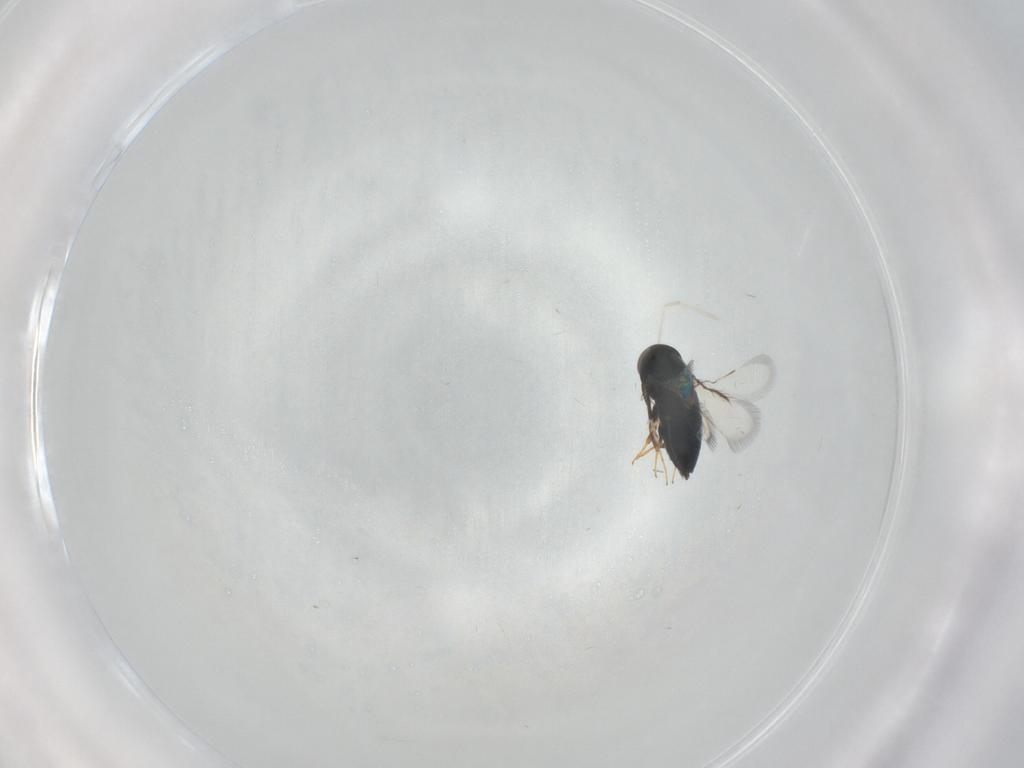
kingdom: Animalia
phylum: Arthropoda
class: Insecta
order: Hymenoptera
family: Signiphoridae
